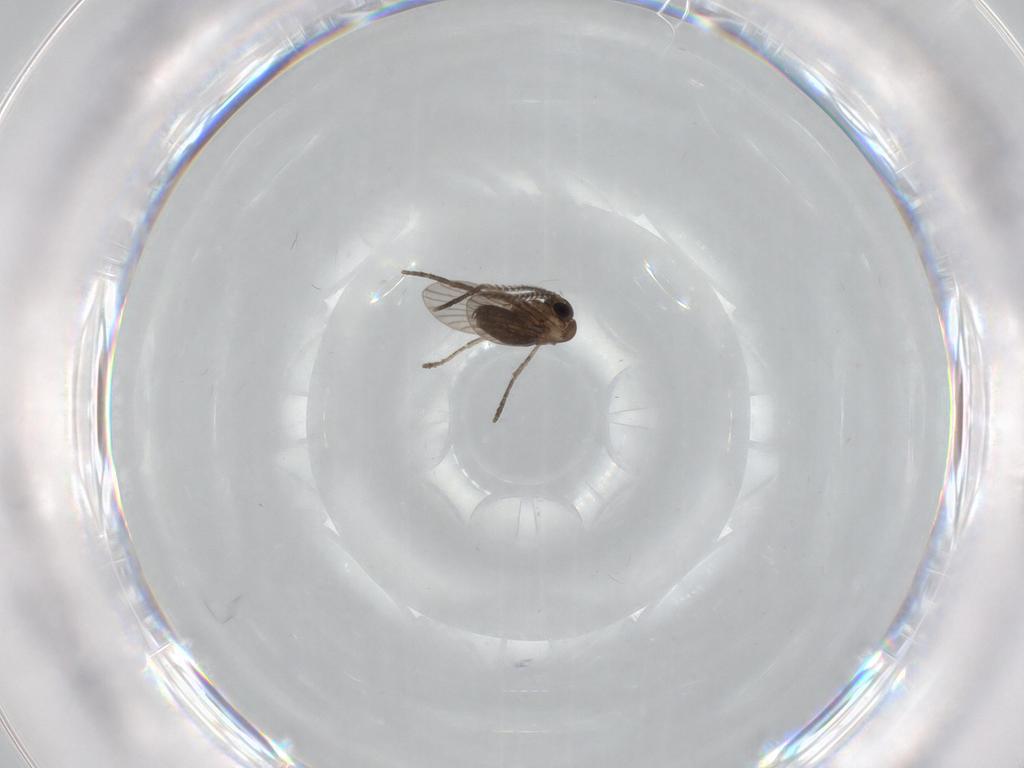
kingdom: Animalia
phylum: Arthropoda
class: Insecta
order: Diptera
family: Sciaridae
